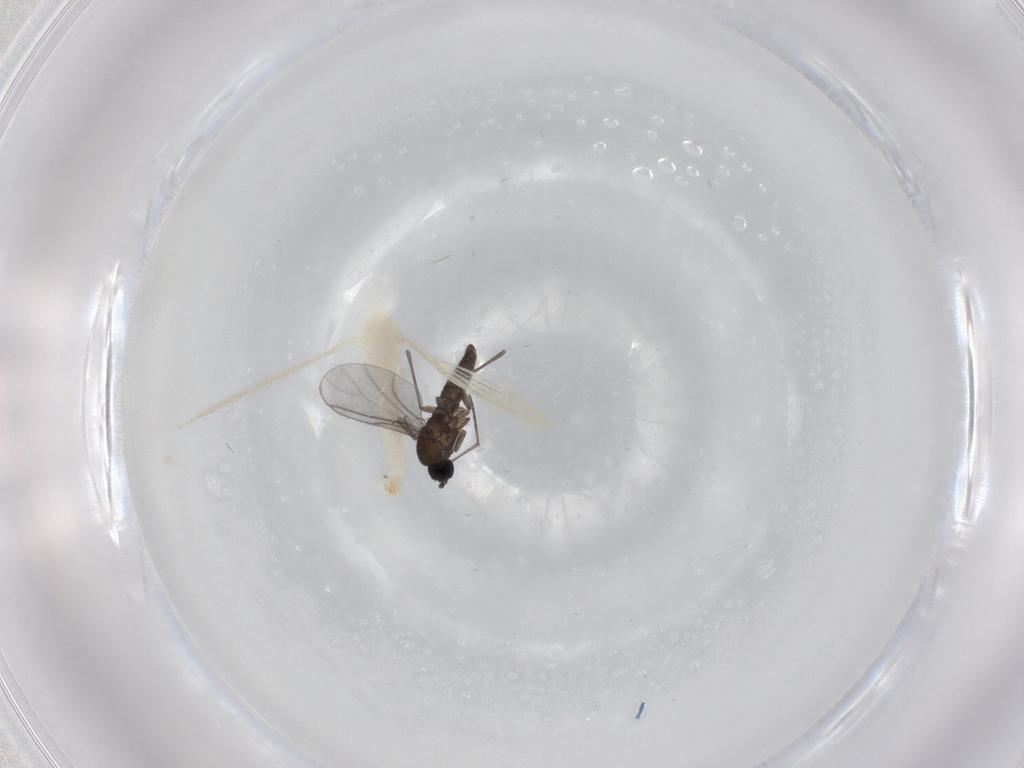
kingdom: Animalia
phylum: Arthropoda
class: Insecta
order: Diptera
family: Cecidomyiidae
